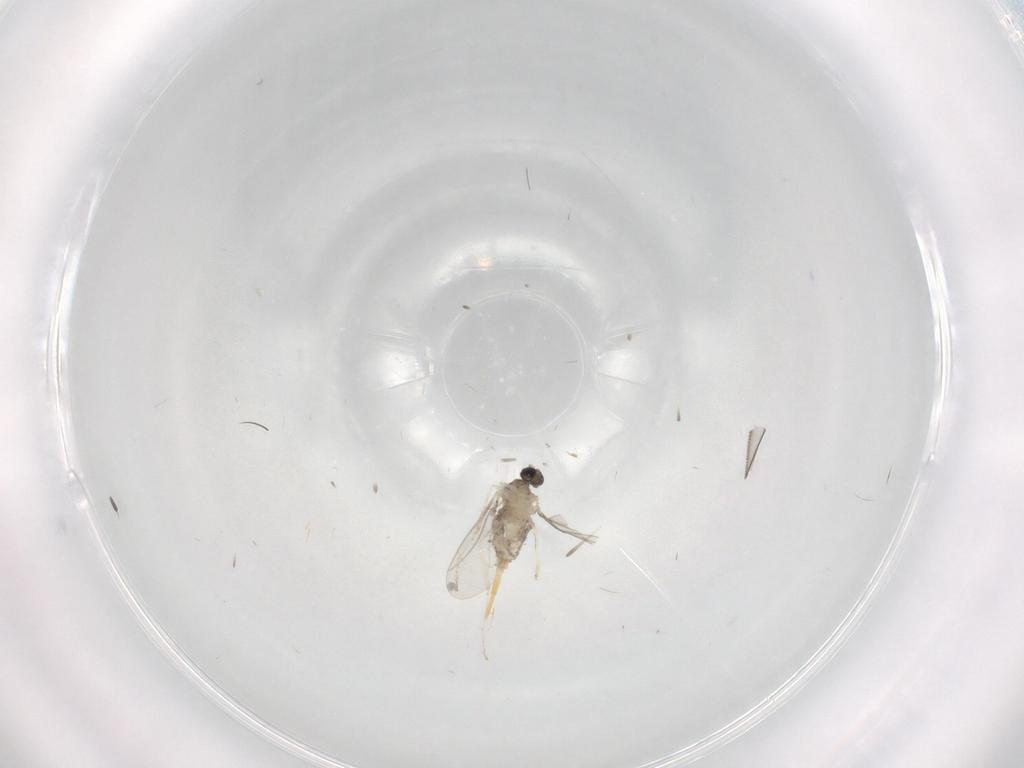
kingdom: Animalia
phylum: Arthropoda
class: Insecta
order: Diptera
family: Cecidomyiidae
